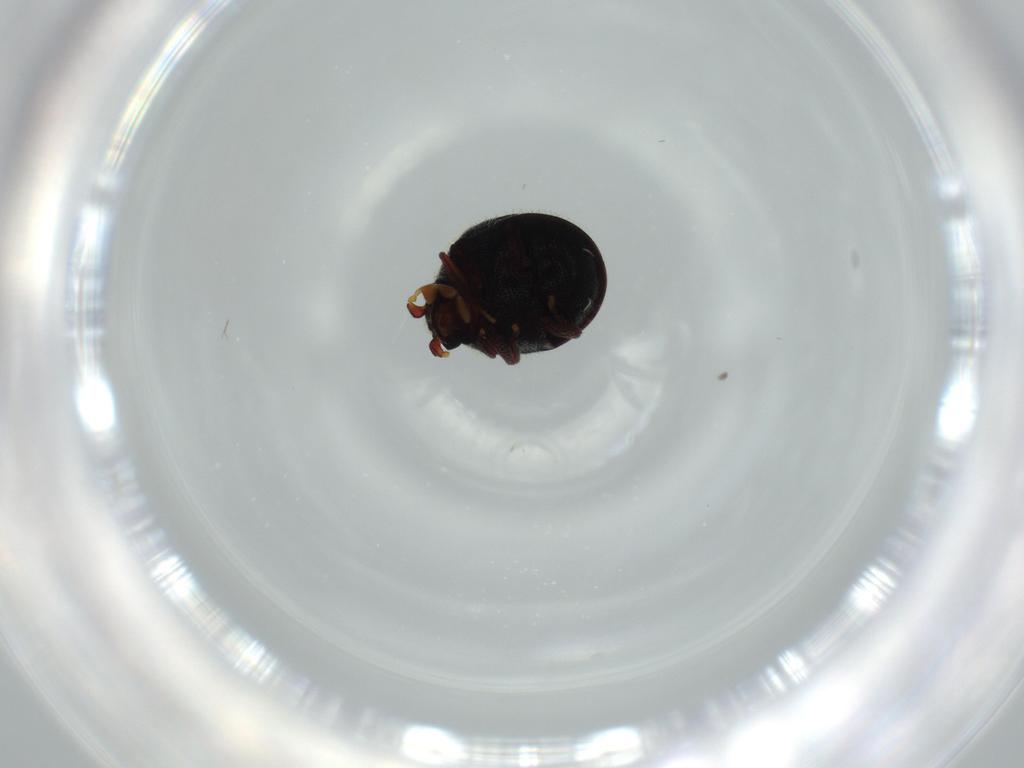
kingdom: Animalia
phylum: Arthropoda
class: Insecta
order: Coleoptera
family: Ptinidae
